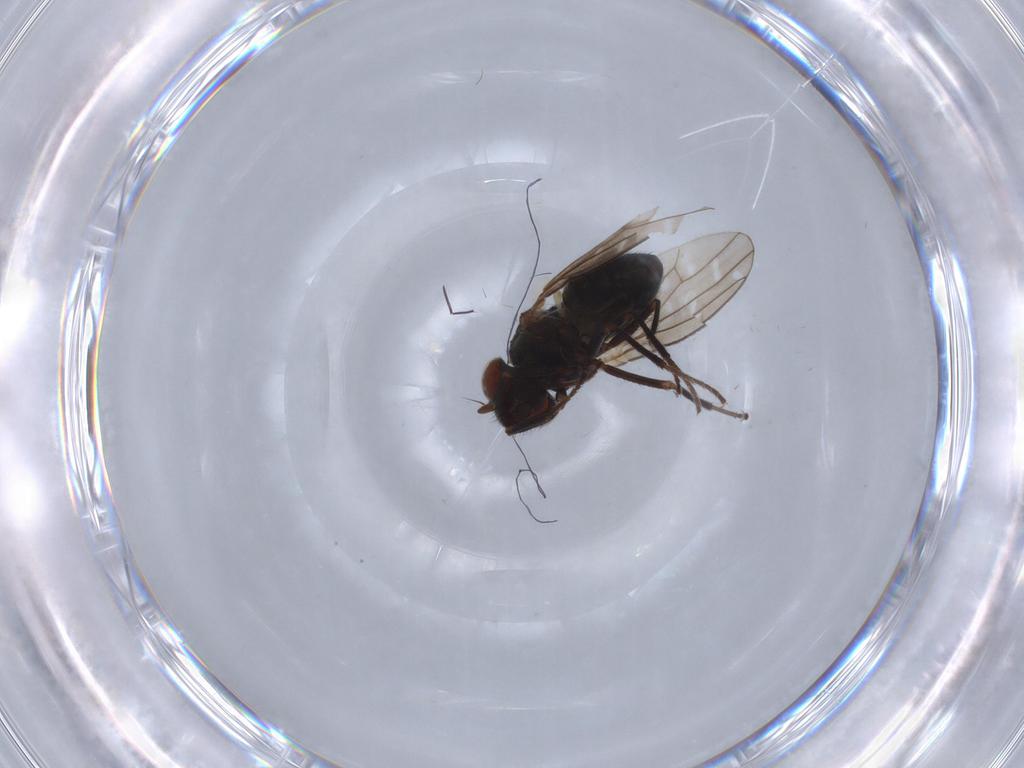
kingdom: Animalia
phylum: Arthropoda
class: Insecta
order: Diptera
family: Ephydridae
